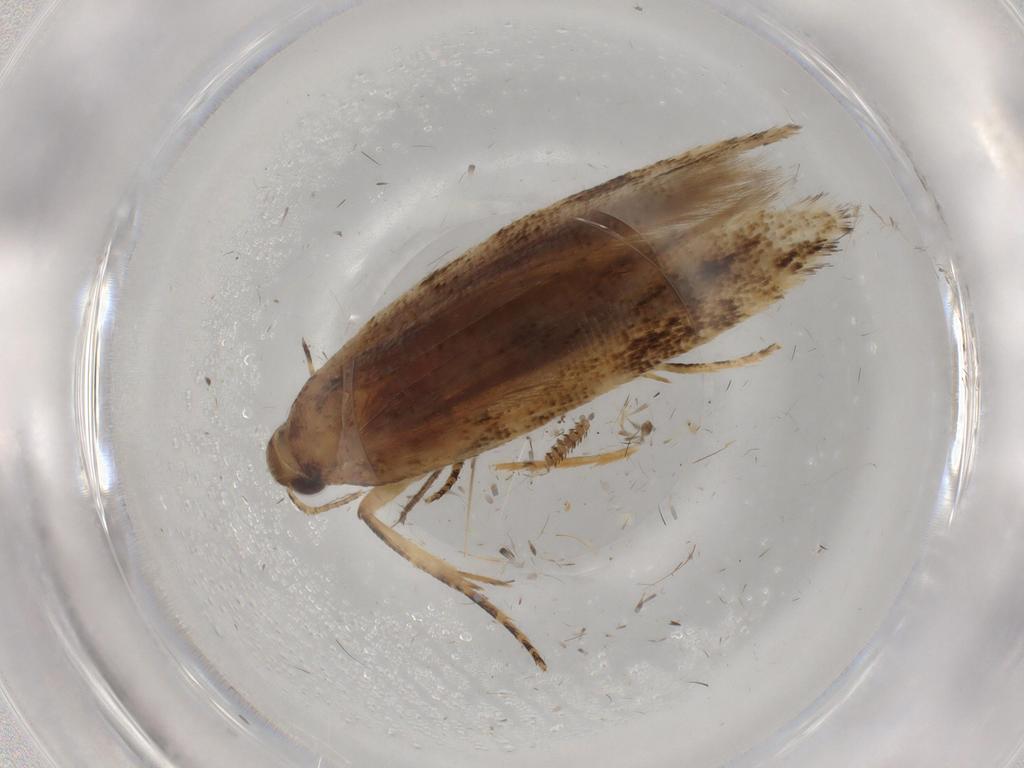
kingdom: Animalia
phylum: Arthropoda
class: Insecta
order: Lepidoptera
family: Gelechiidae
